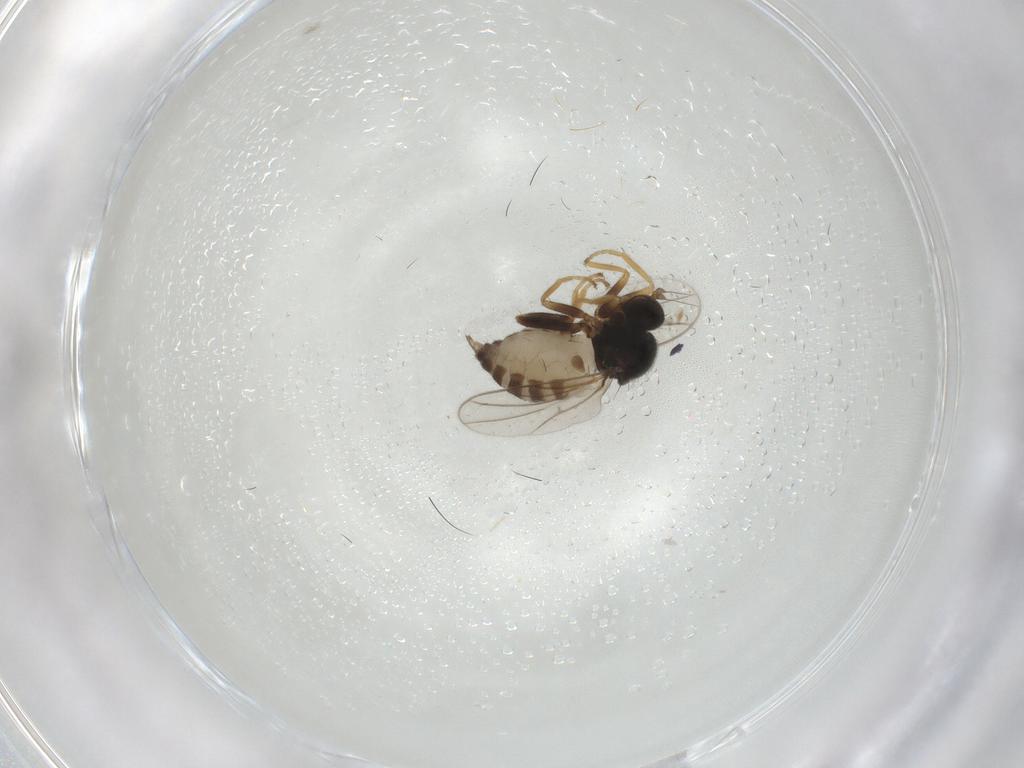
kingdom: Animalia
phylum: Arthropoda
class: Insecta
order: Diptera
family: Hybotidae
